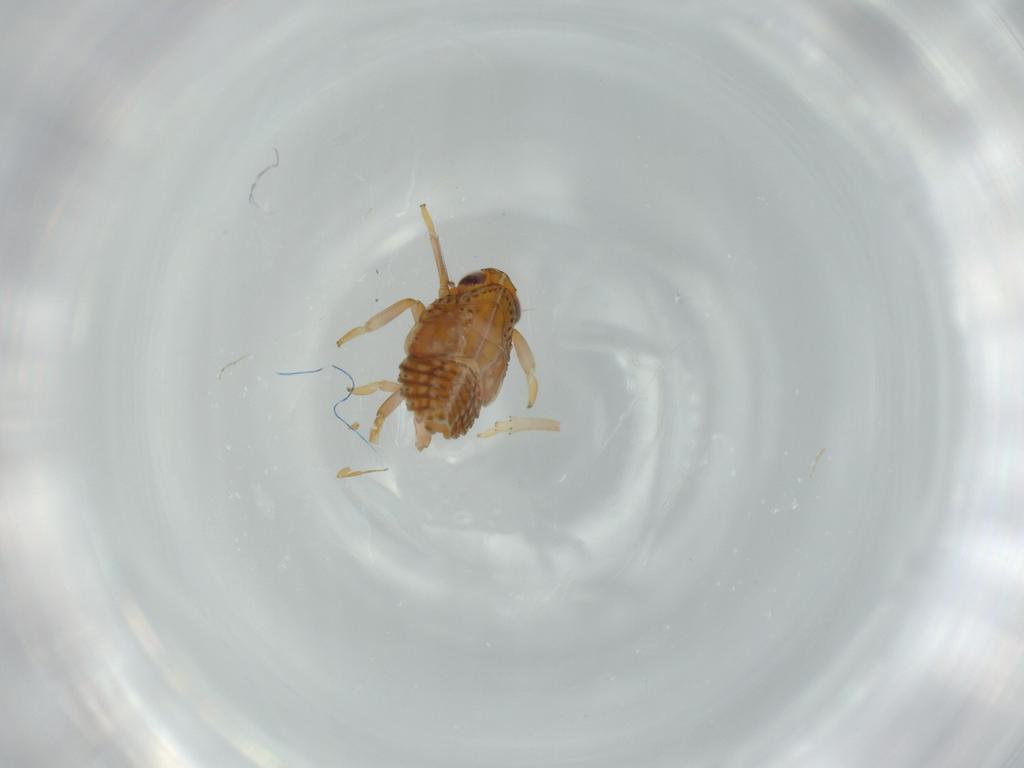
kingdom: Animalia
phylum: Arthropoda
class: Insecta
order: Hemiptera
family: Issidae
